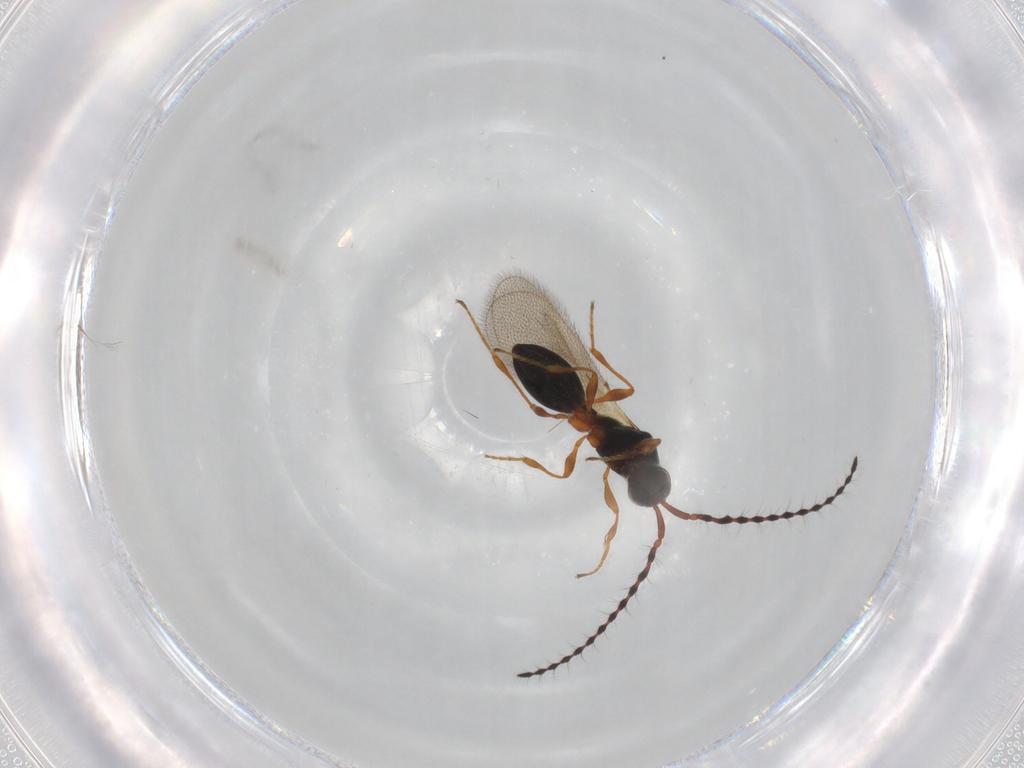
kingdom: Animalia
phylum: Arthropoda
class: Insecta
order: Hymenoptera
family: Diapriidae
